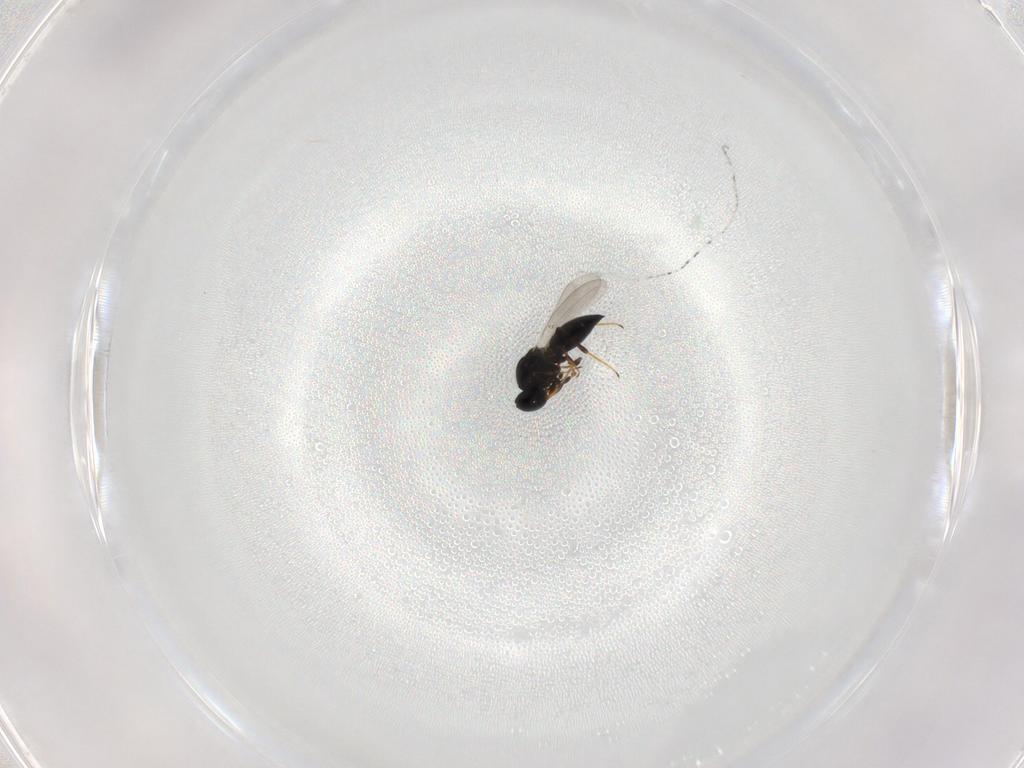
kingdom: Animalia
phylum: Arthropoda
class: Insecta
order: Hymenoptera
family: Platygastridae
